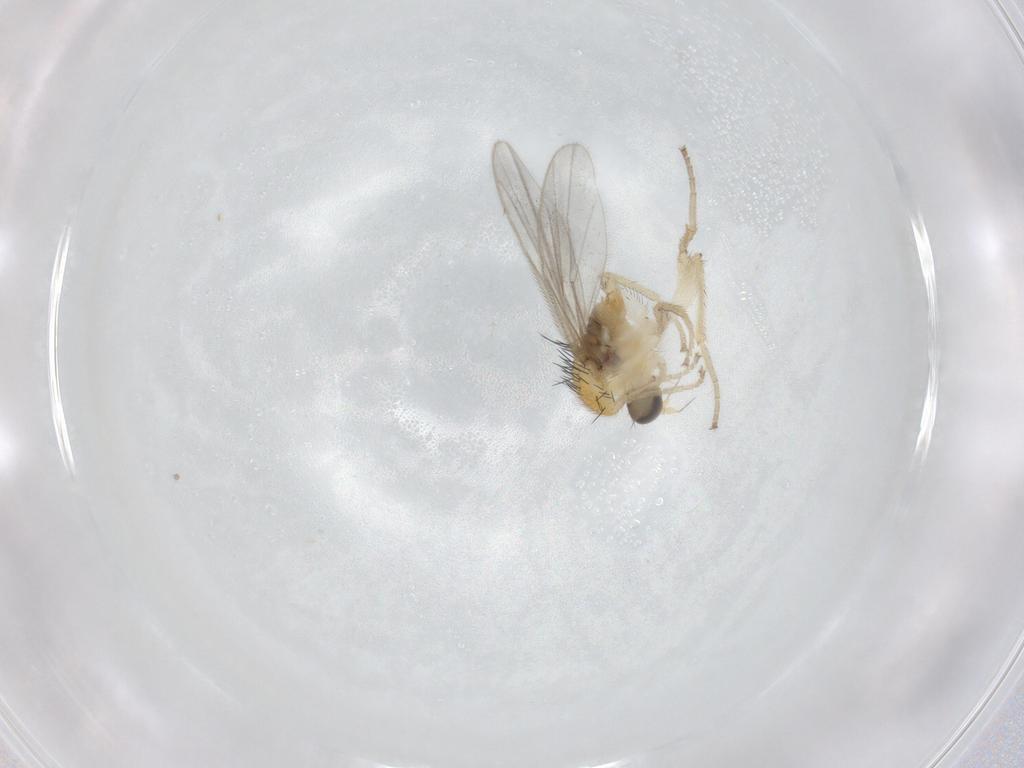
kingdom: Animalia
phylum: Arthropoda
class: Insecta
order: Diptera
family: Hybotidae
